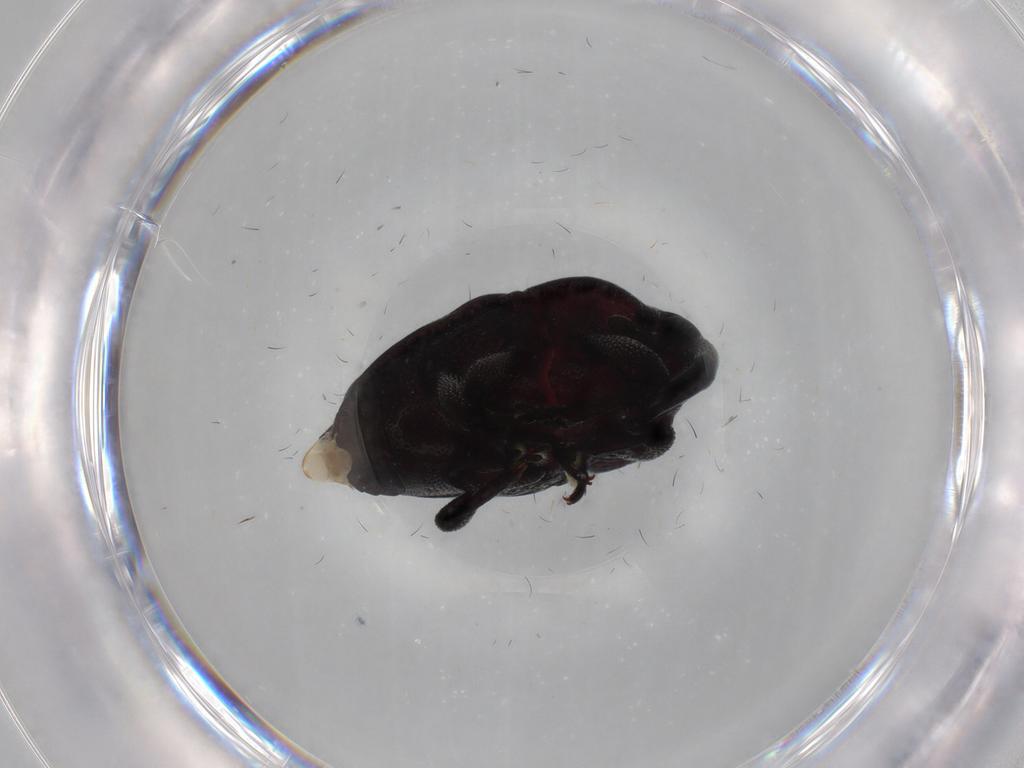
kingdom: Animalia
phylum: Arthropoda
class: Insecta
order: Coleoptera
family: Curculionidae
